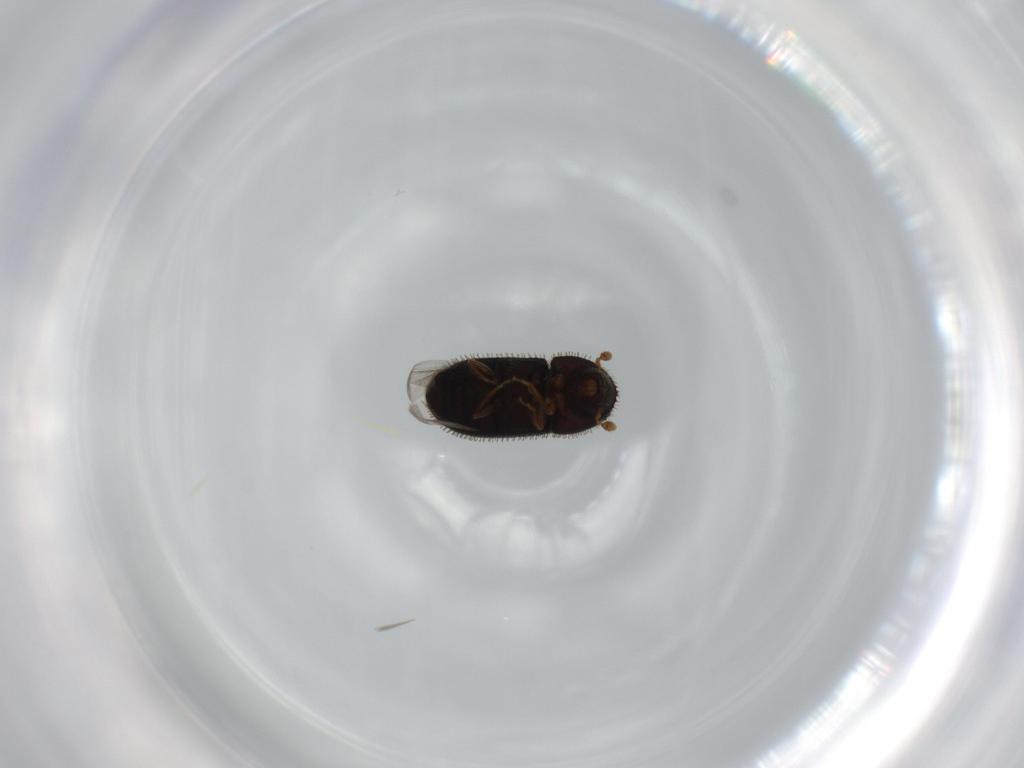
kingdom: Animalia
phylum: Arthropoda
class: Insecta
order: Coleoptera
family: Curculionidae
